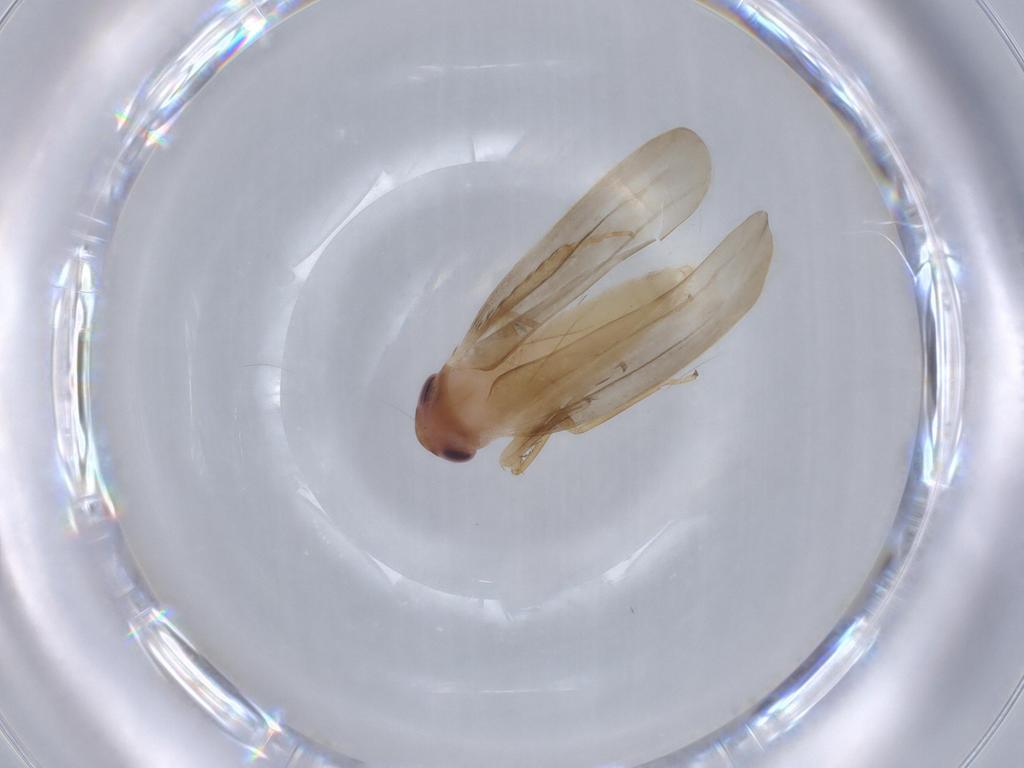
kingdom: Animalia
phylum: Arthropoda
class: Insecta
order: Hemiptera
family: Cicadellidae
